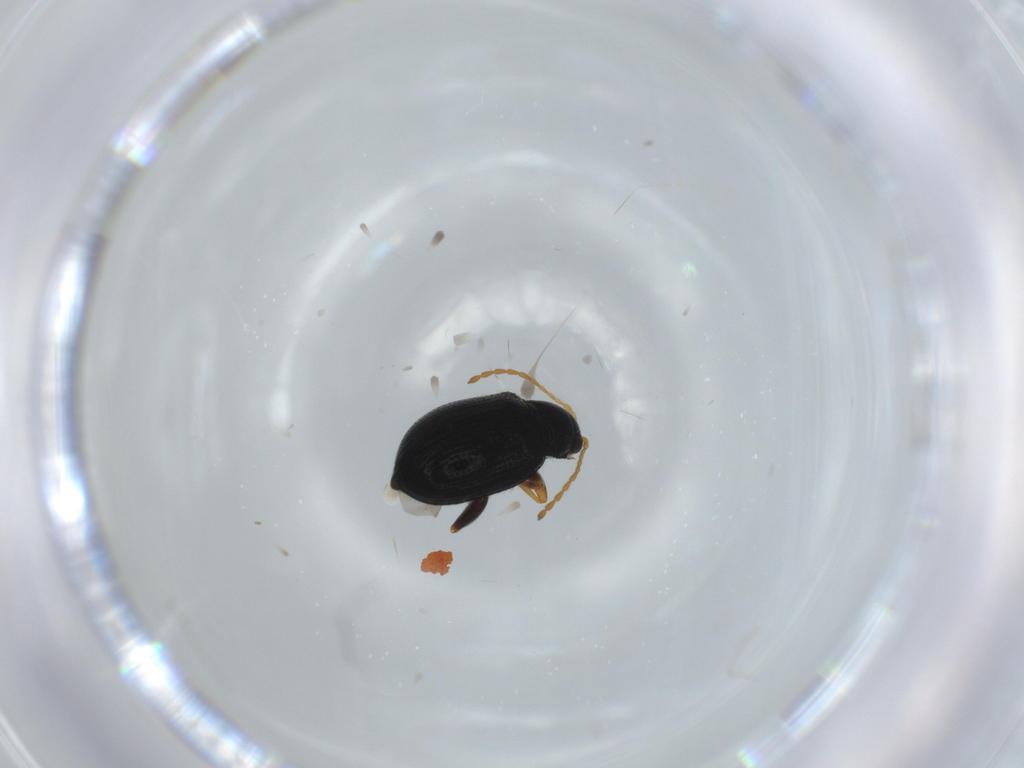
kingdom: Animalia
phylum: Arthropoda
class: Insecta
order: Coleoptera
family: Chrysomelidae
